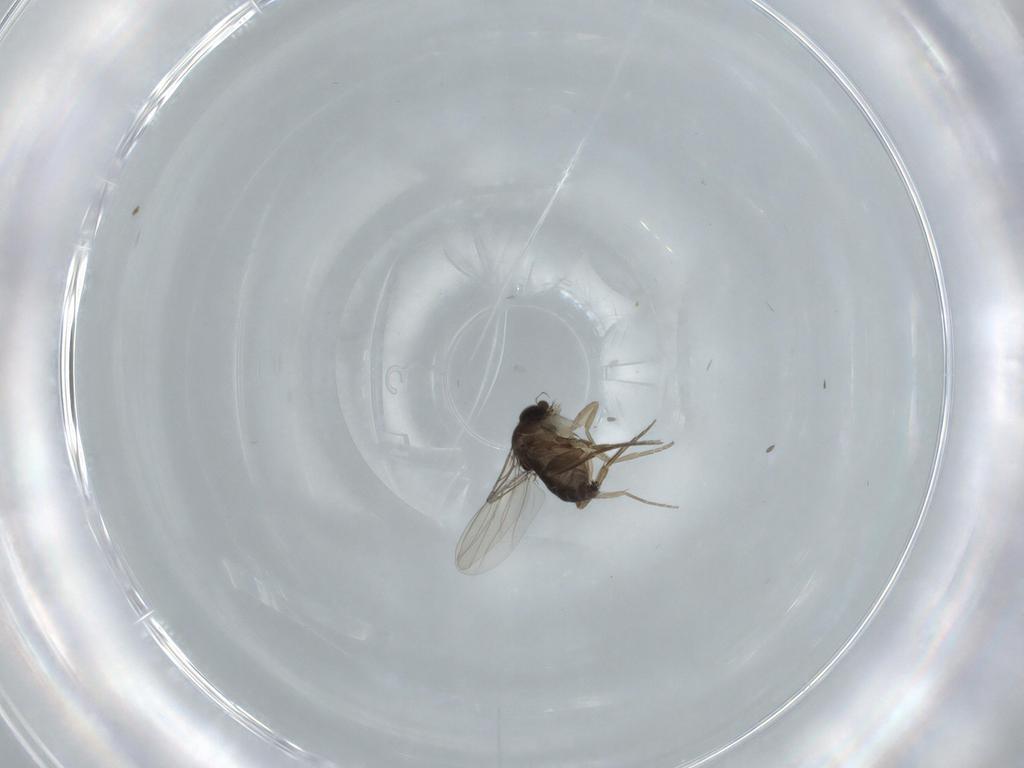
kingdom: Animalia
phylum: Arthropoda
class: Insecta
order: Diptera
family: Phoridae
